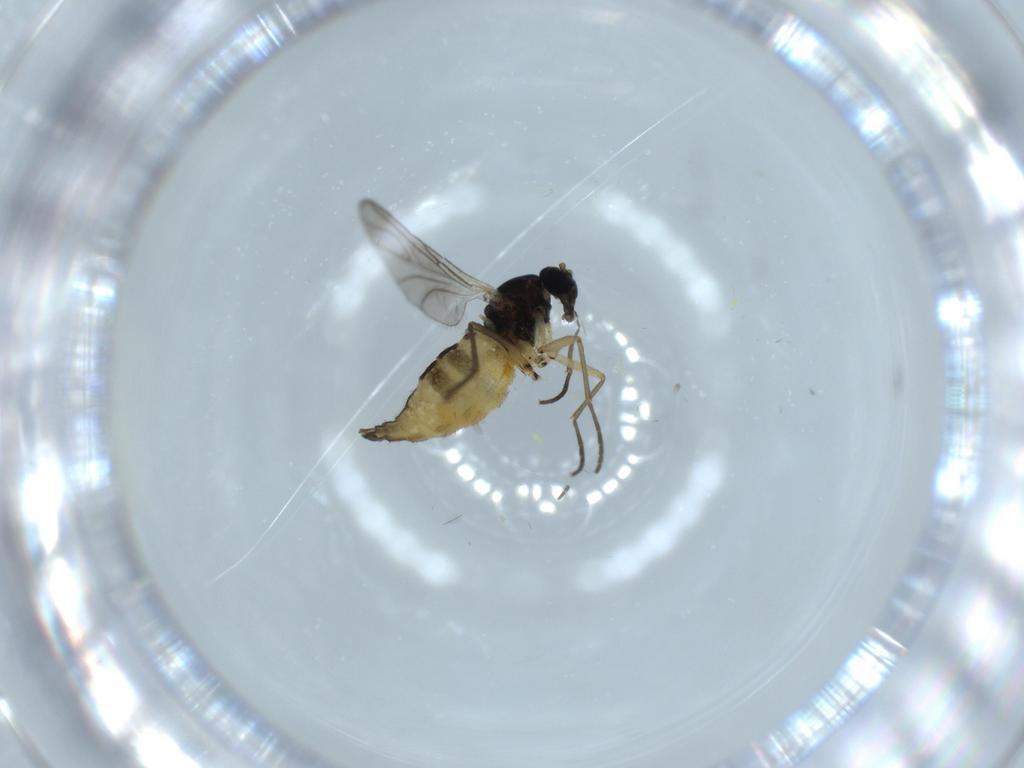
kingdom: Animalia
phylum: Arthropoda
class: Insecta
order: Diptera
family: Sciaridae
